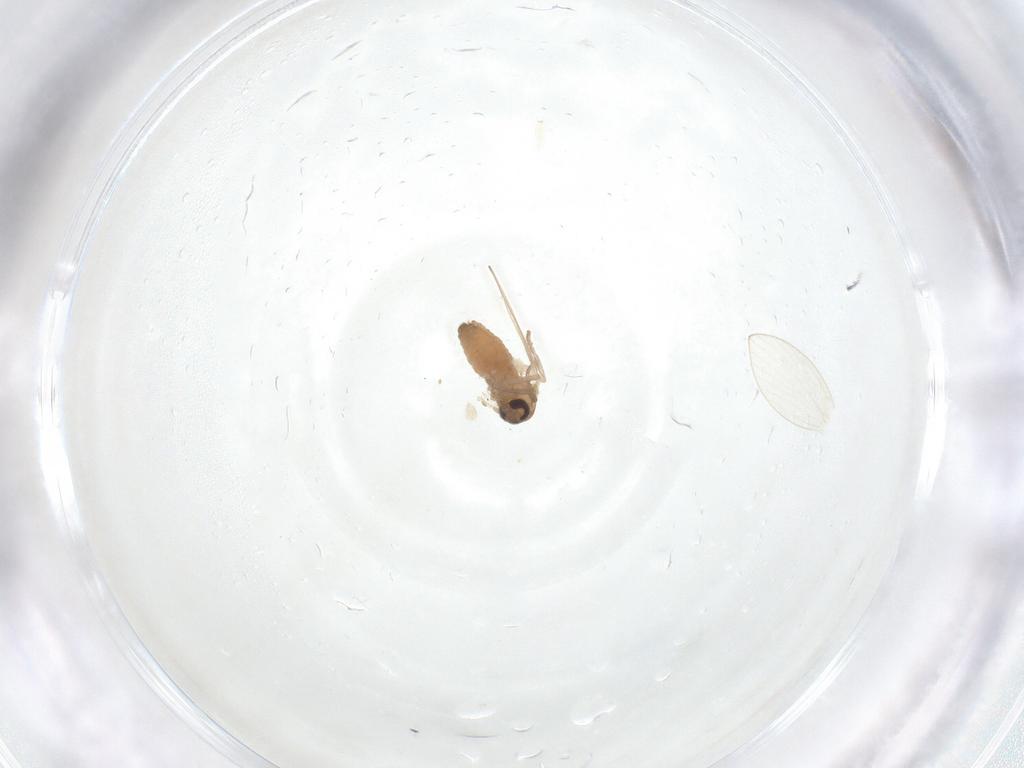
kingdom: Animalia
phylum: Arthropoda
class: Insecta
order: Diptera
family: Psychodidae
